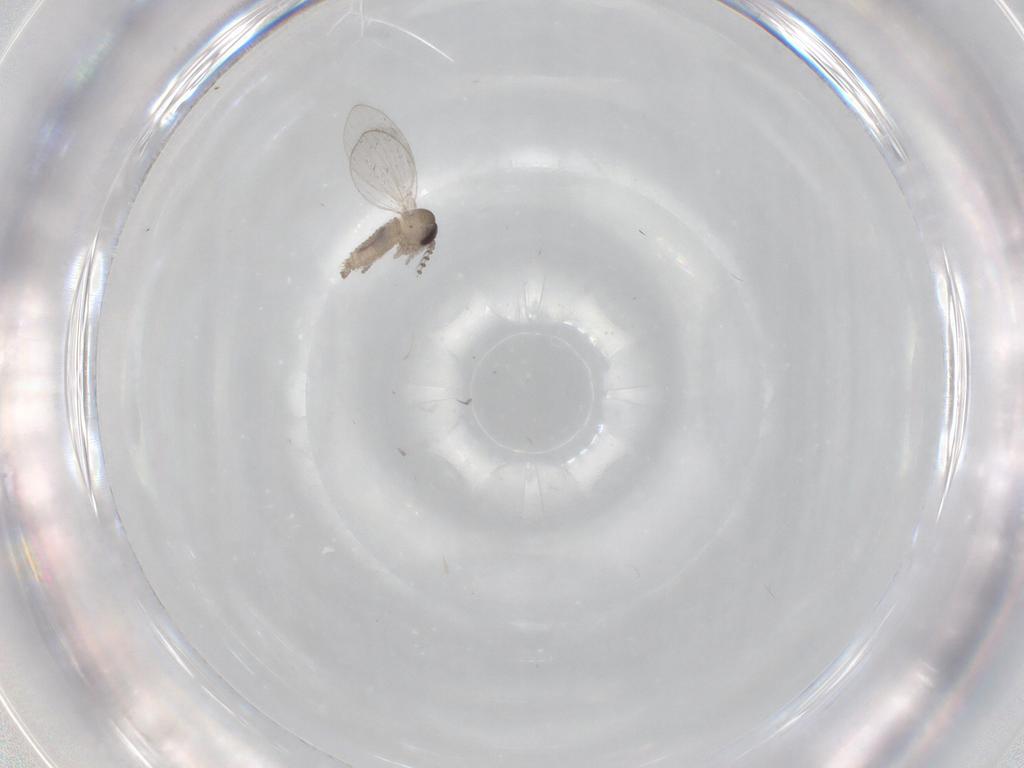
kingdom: Animalia
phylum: Arthropoda
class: Insecta
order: Diptera
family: Psychodidae
